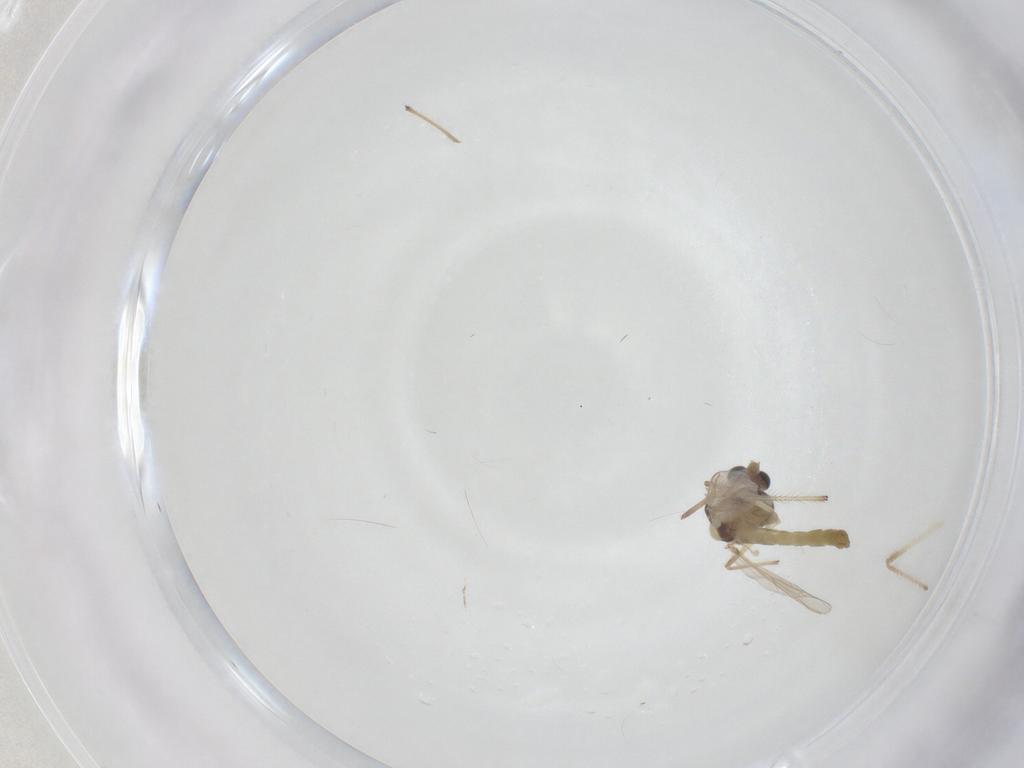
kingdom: Animalia
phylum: Arthropoda
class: Insecta
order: Diptera
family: Chironomidae
